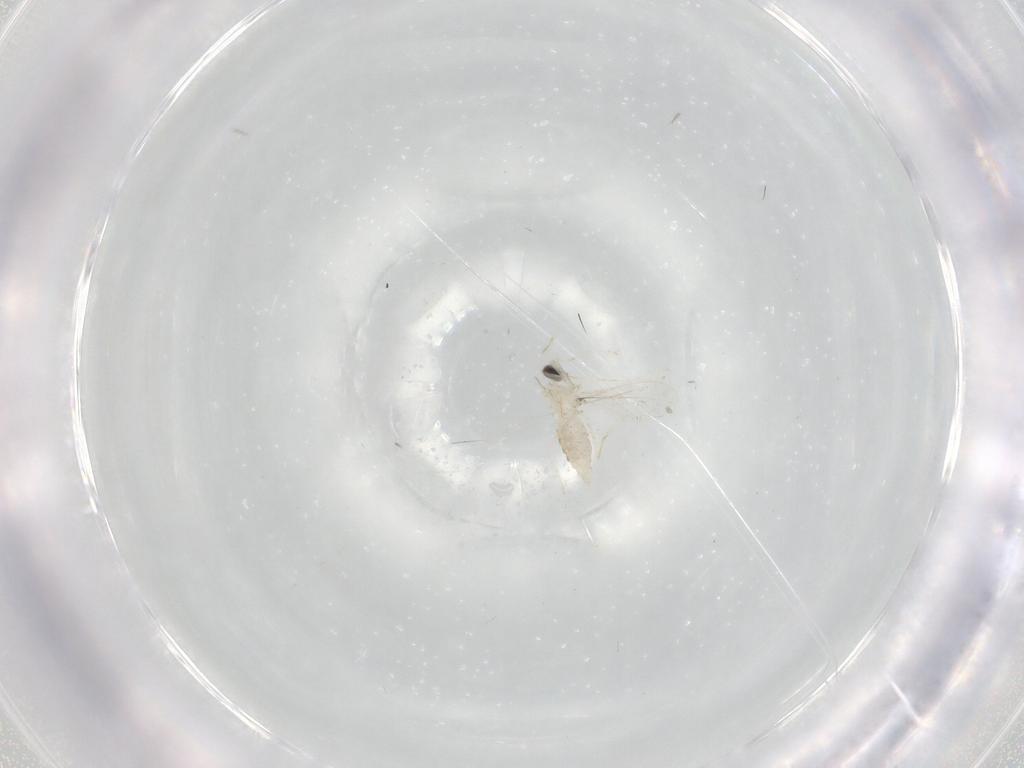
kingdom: Animalia
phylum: Arthropoda
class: Insecta
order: Diptera
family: Cecidomyiidae
